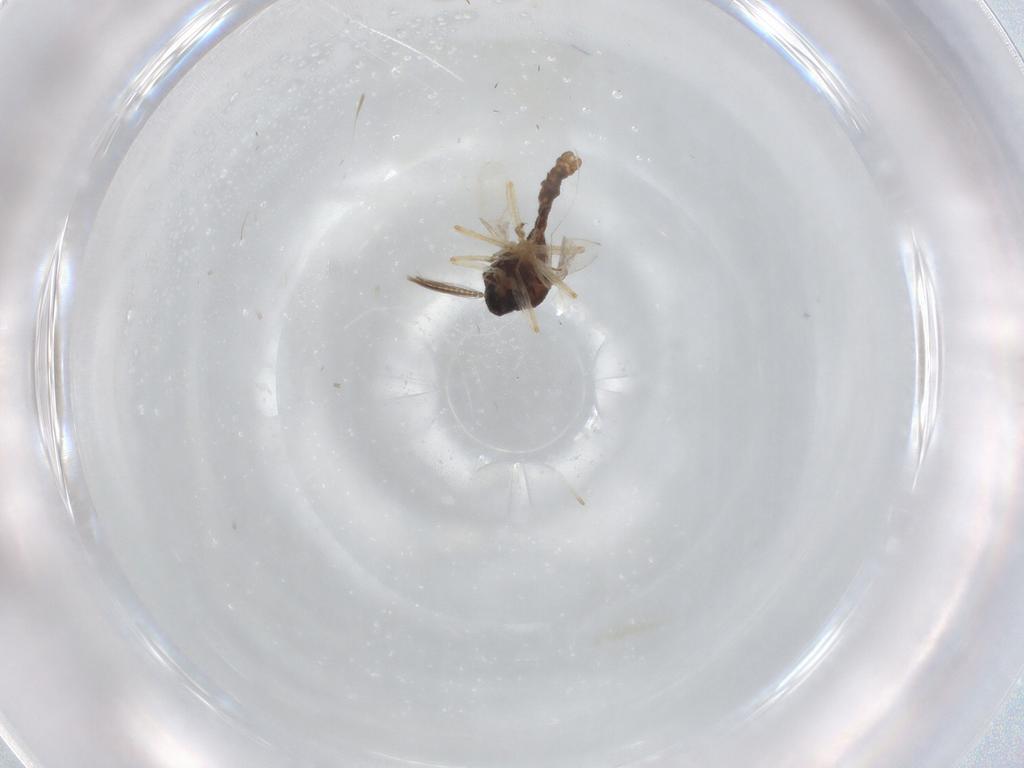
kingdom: Animalia
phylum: Arthropoda
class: Insecta
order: Diptera
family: Ceratopogonidae
